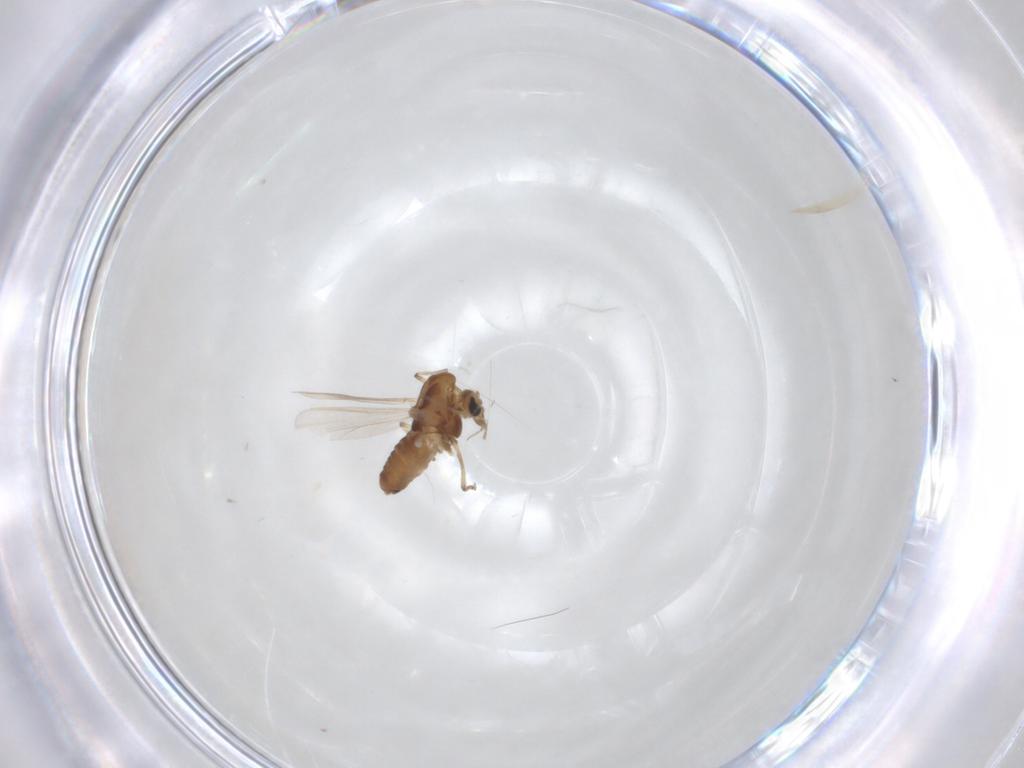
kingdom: Animalia
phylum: Arthropoda
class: Insecta
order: Diptera
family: Chironomidae
